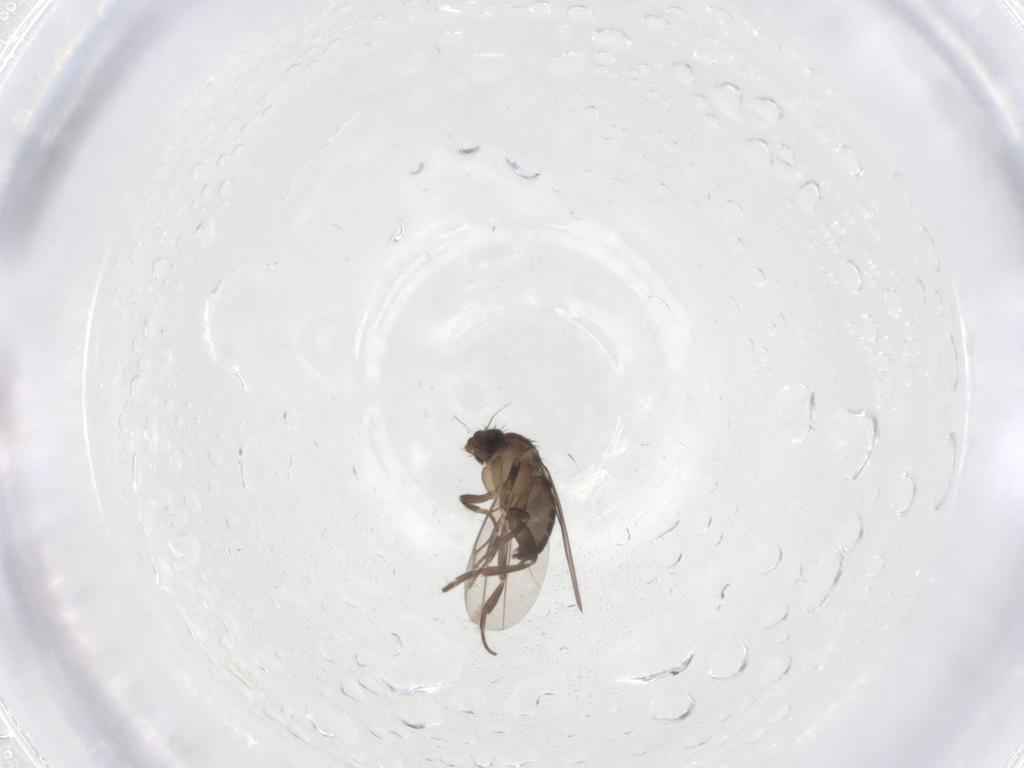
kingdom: Animalia
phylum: Arthropoda
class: Insecta
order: Diptera
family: Phoridae
